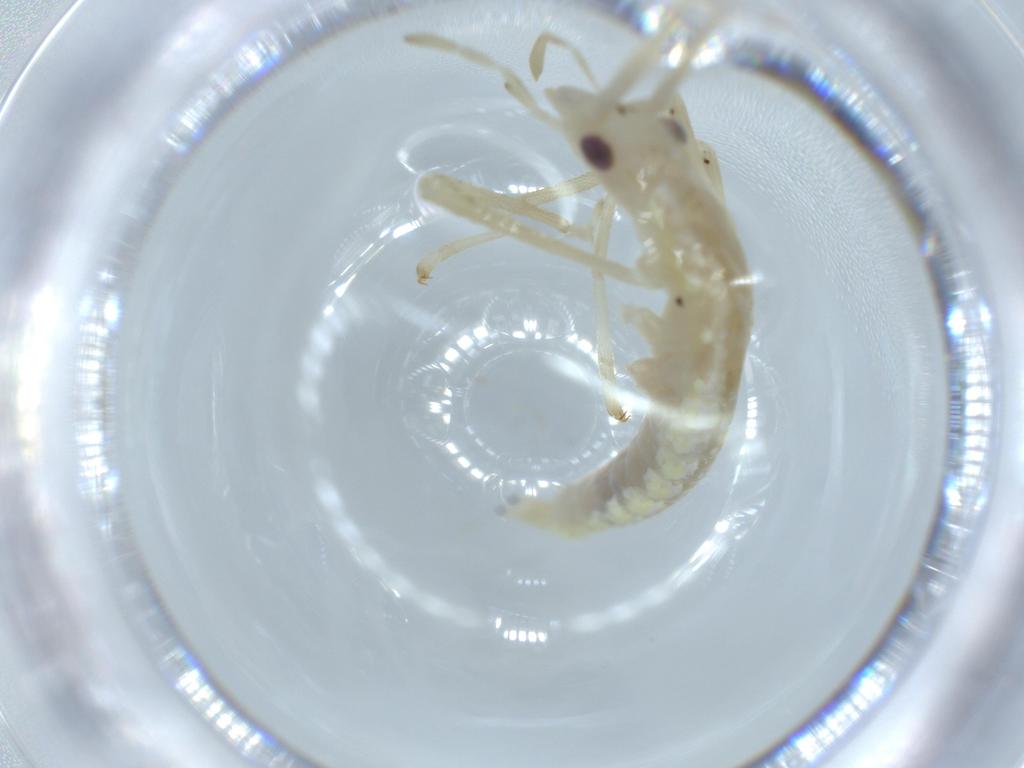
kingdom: Animalia
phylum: Arthropoda
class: Insecta
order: Orthoptera
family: Oecanthidae
